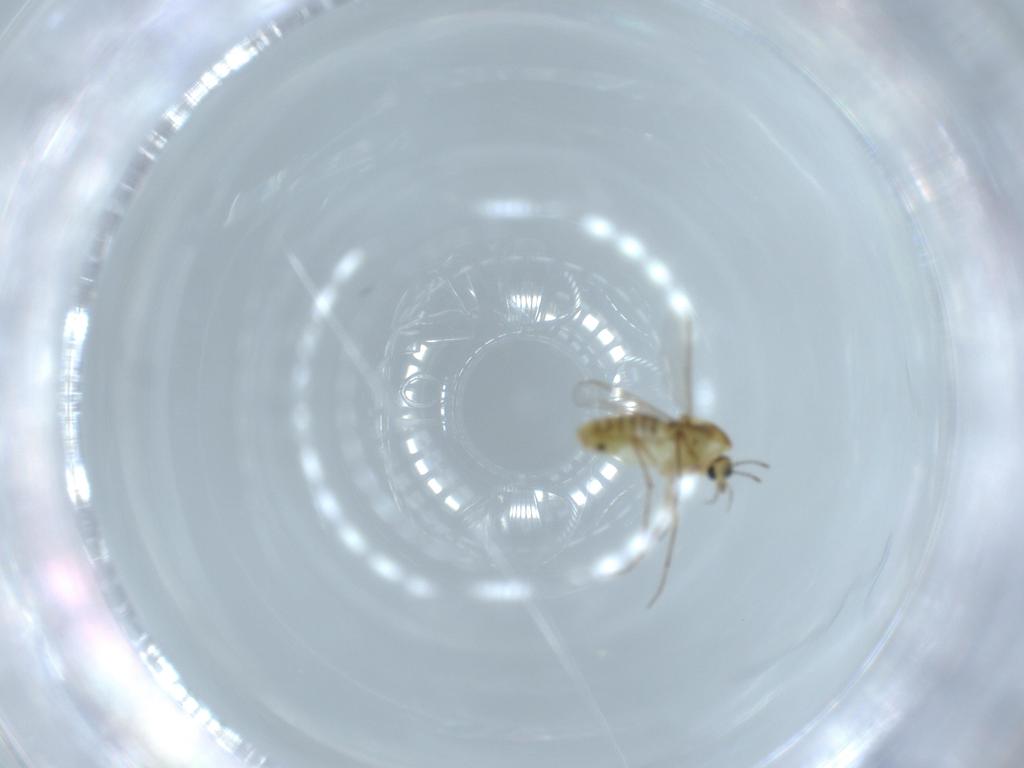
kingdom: Animalia
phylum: Arthropoda
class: Insecta
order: Diptera
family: Chironomidae
